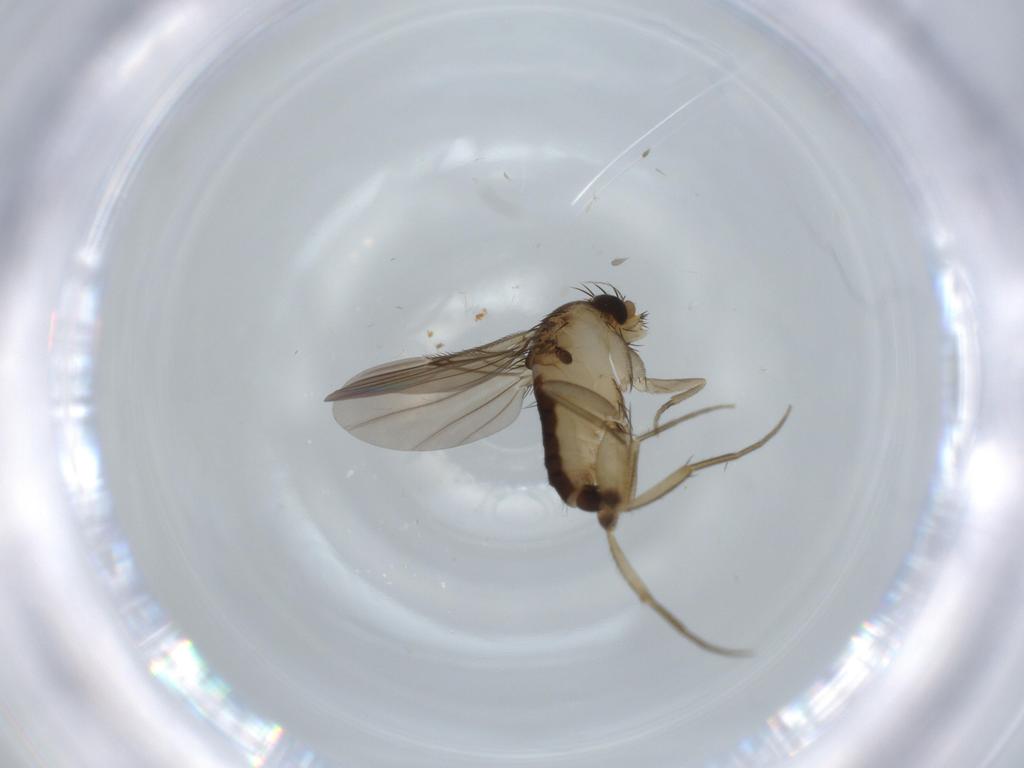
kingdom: Animalia
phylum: Arthropoda
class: Insecta
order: Diptera
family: Phoridae
